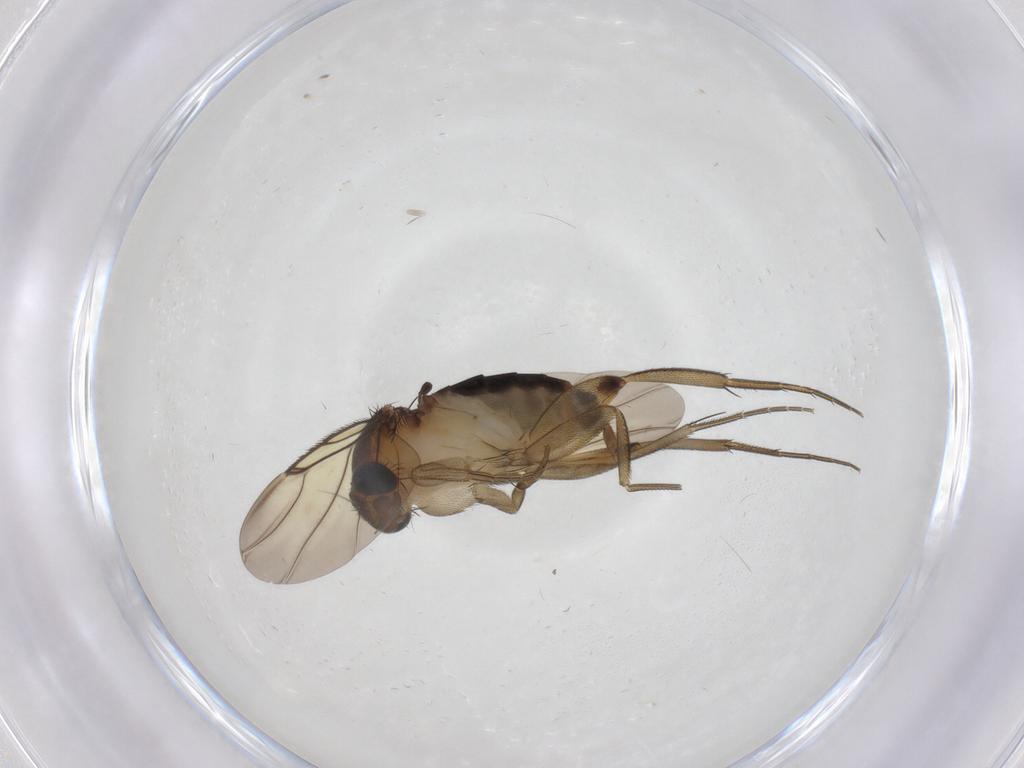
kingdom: Animalia
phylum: Arthropoda
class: Insecta
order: Diptera
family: Phoridae
